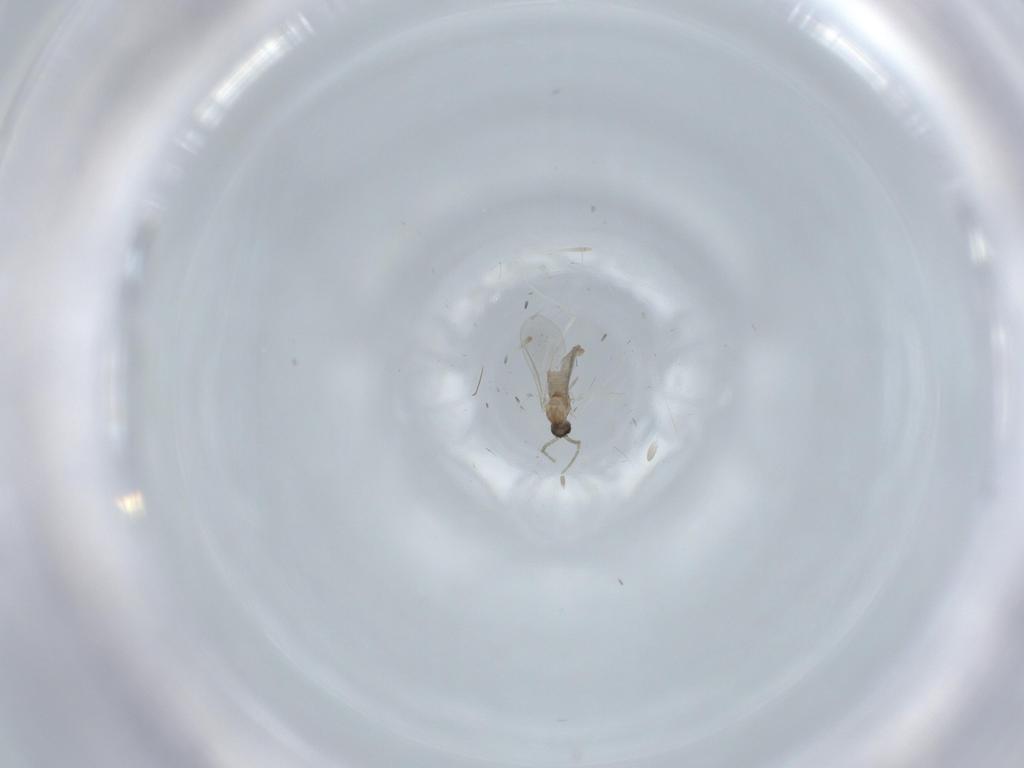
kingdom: Animalia
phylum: Arthropoda
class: Insecta
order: Diptera
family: Cecidomyiidae
